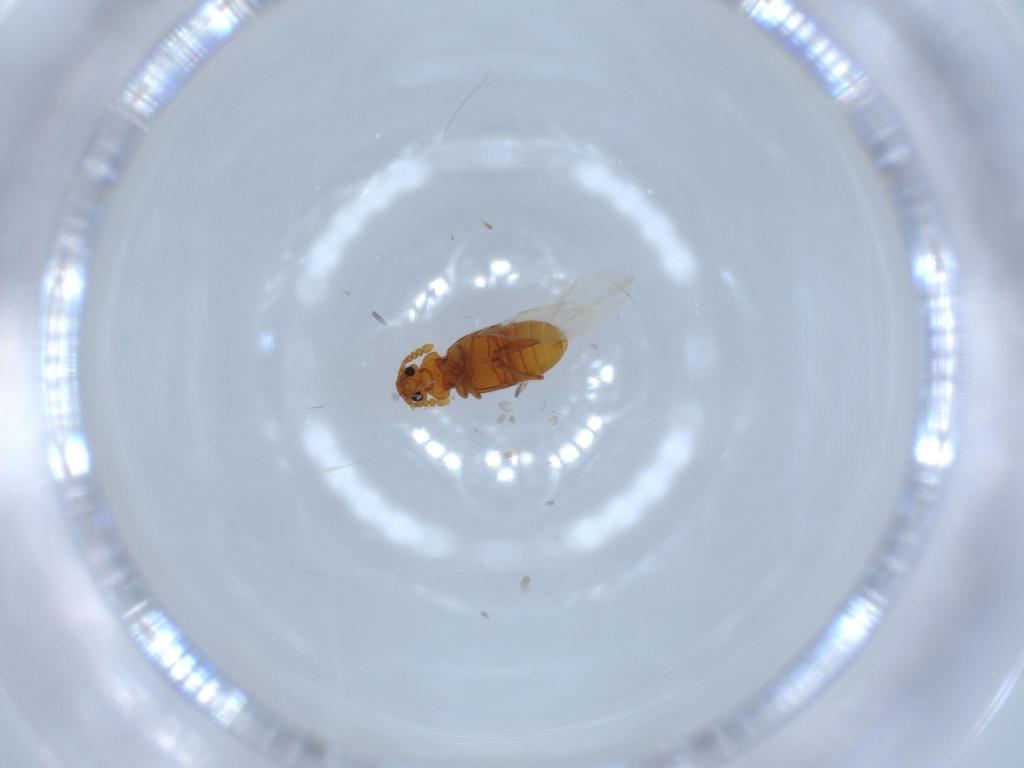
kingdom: Animalia
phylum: Arthropoda
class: Insecta
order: Coleoptera
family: Staphylinidae
